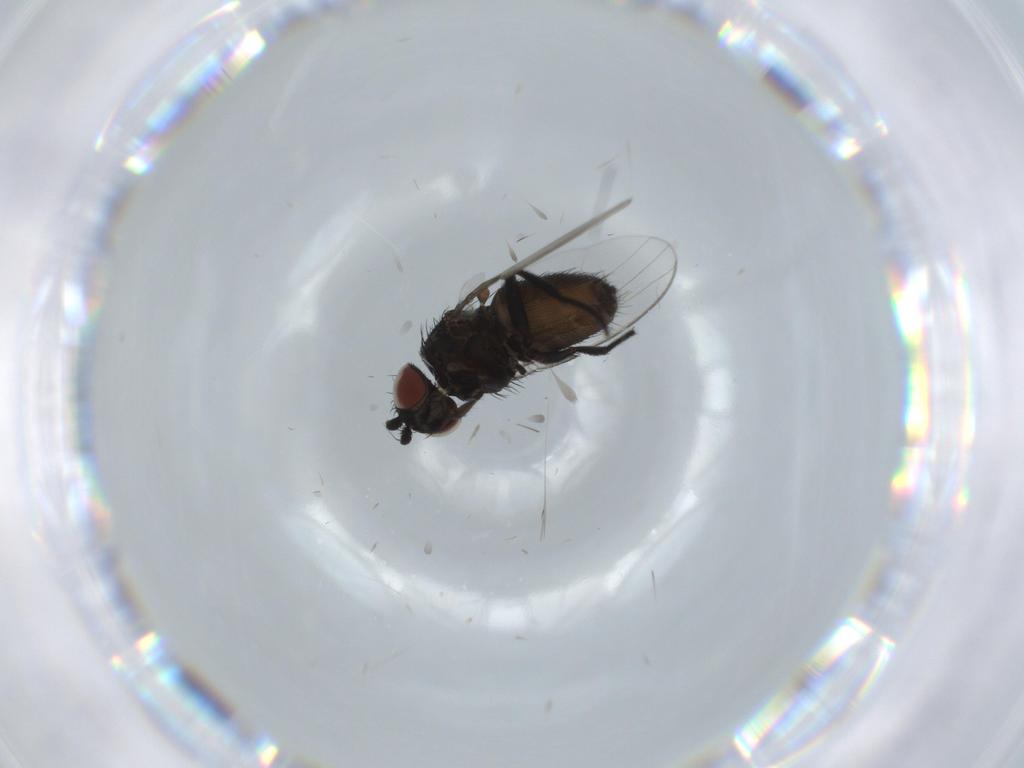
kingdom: Animalia
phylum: Arthropoda
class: Insecta
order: Diptera
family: Milichiidae
